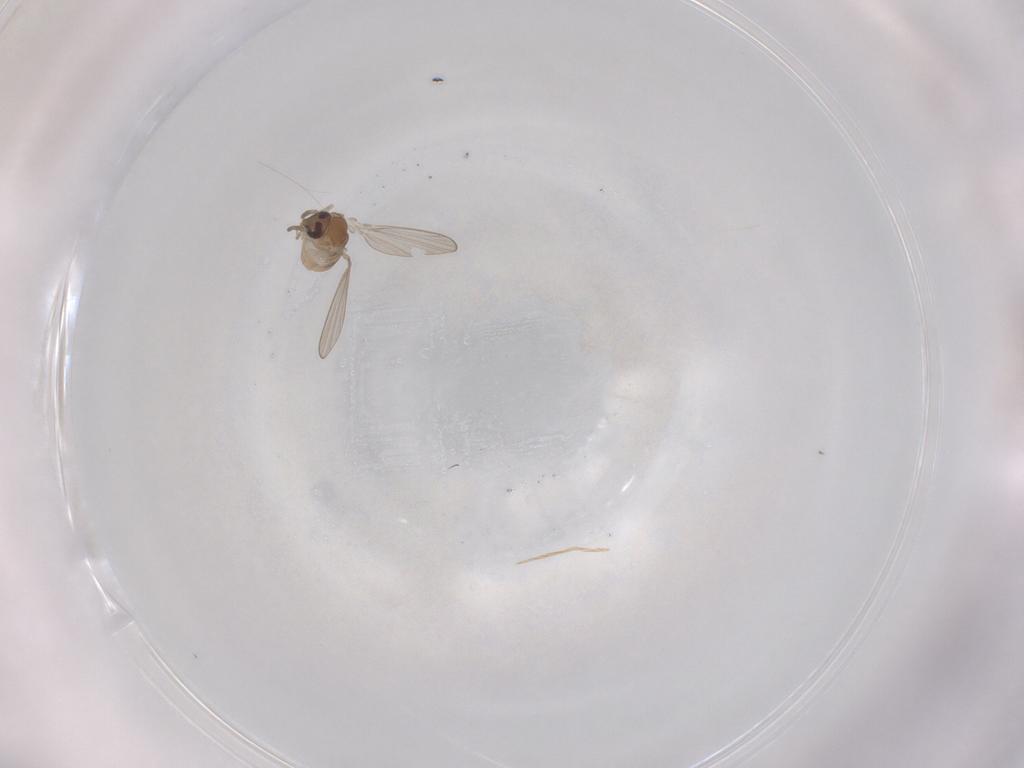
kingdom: Animalia
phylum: Arthropoda
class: Insecta
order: Diptera
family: Psychodidae
